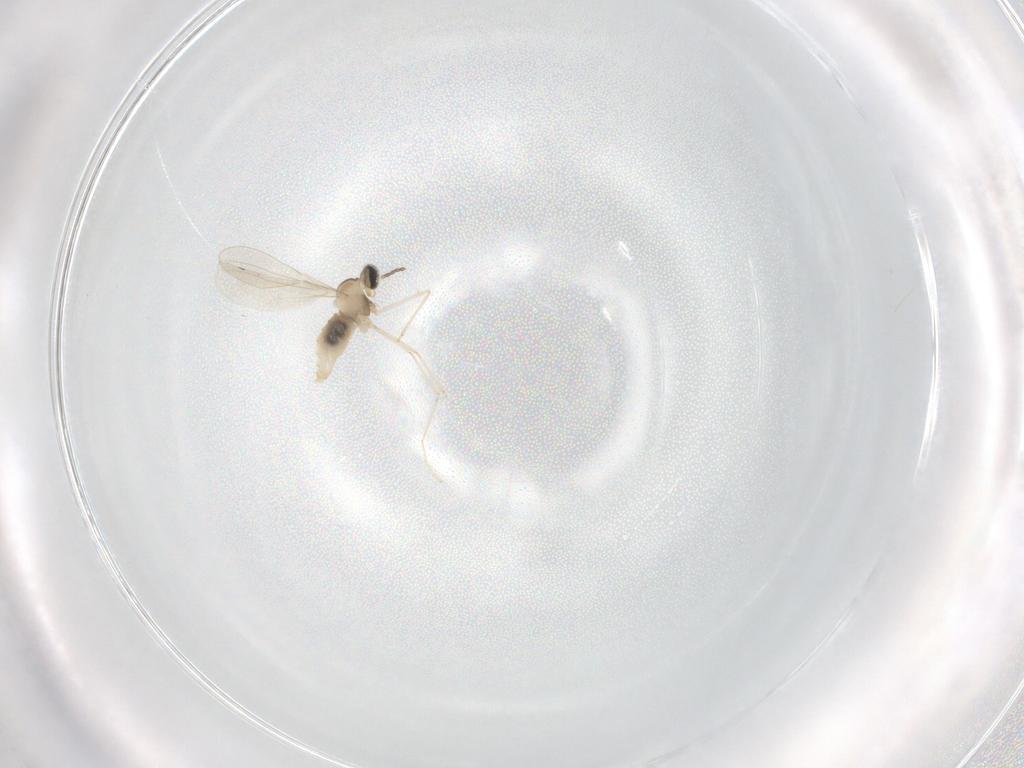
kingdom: Animalia
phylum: Arthropoda
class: Insecta
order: Diptera
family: Cecidomyiidae
